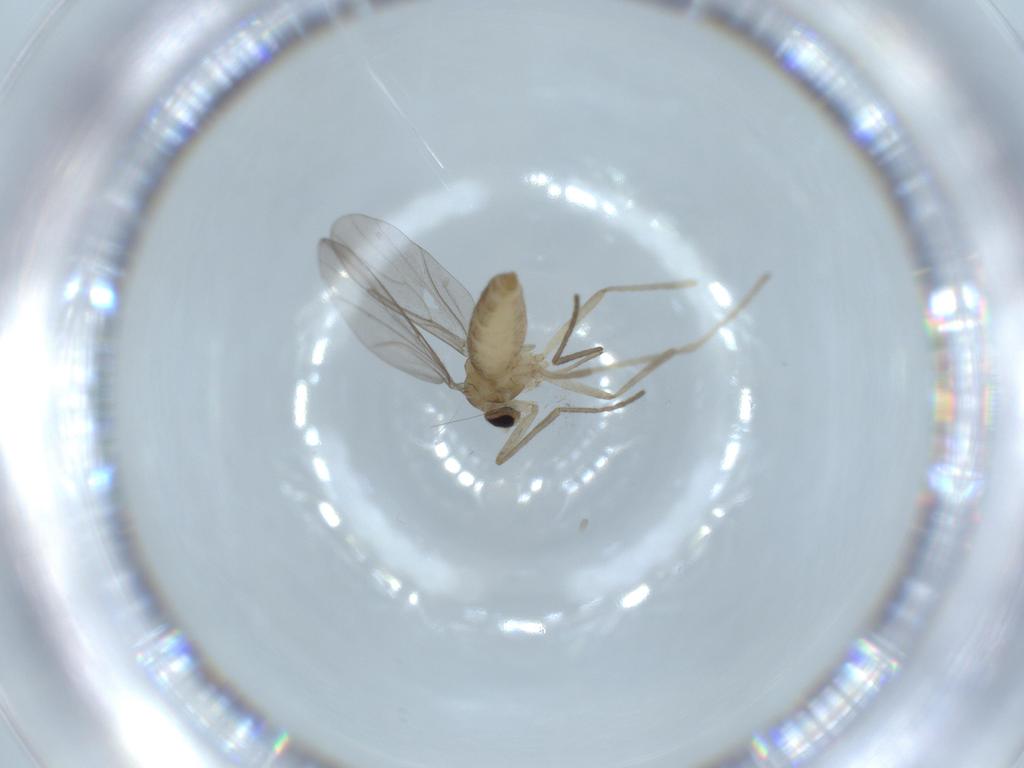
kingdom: Animalia
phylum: Arthropoda
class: Insecta
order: Diptera
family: Cecidomyiidae
